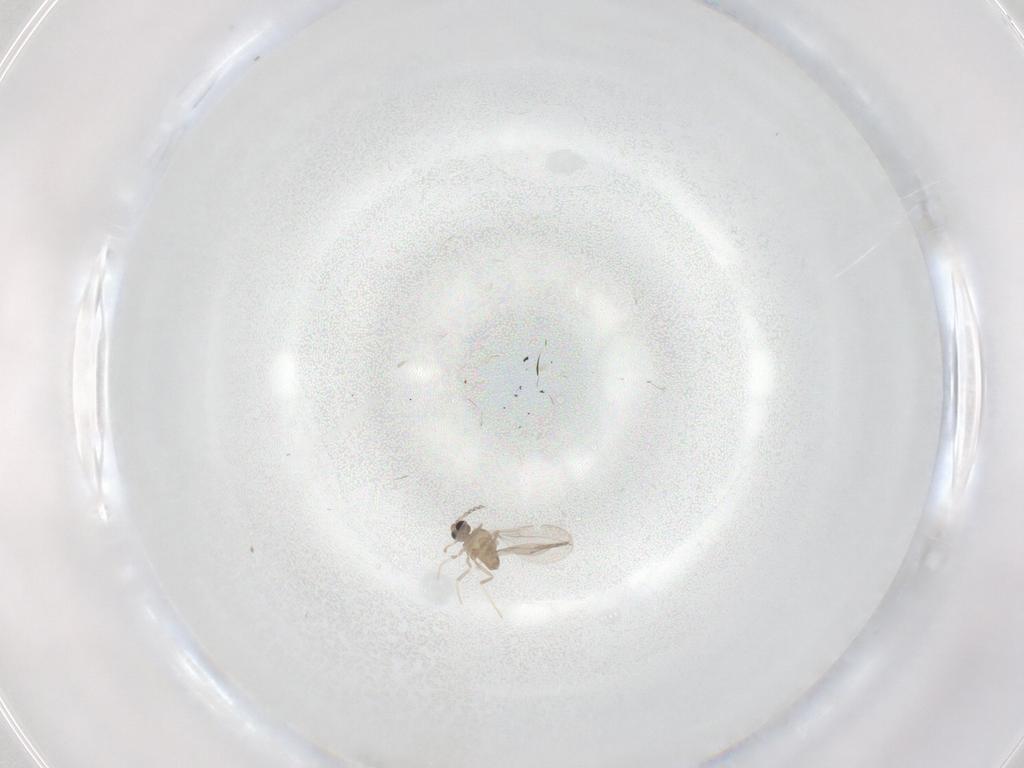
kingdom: Animalia
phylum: Arthropoda
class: Insecta
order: Diptera
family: Cecidomyiidae
